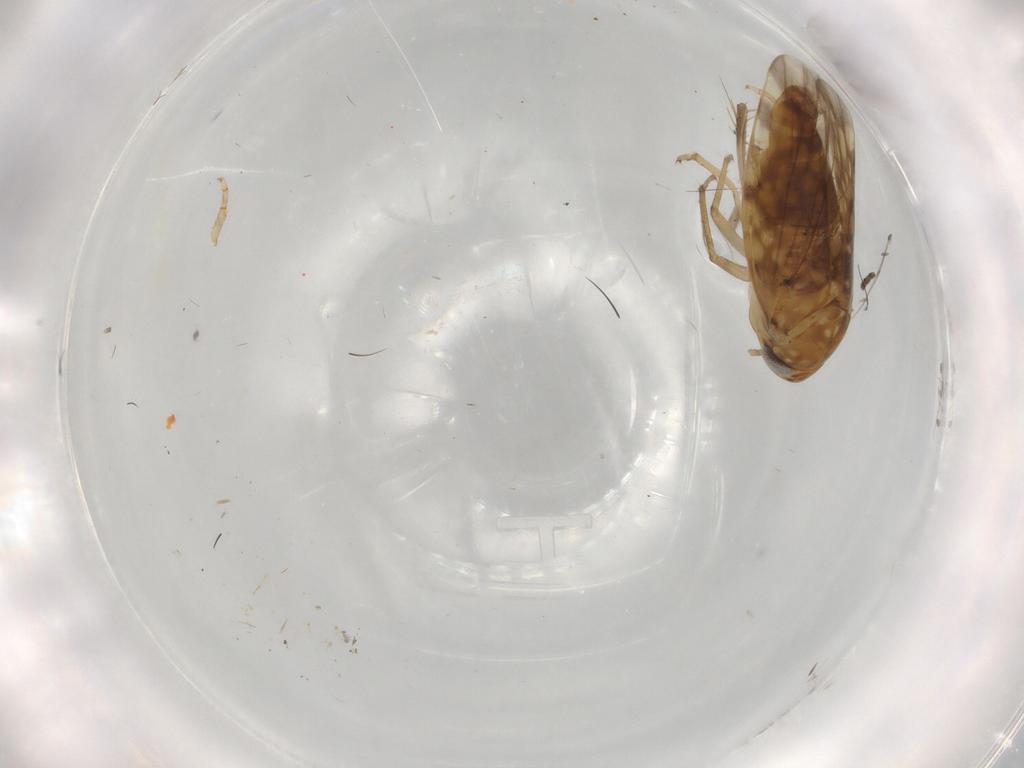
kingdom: Animalia
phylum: Arthropoda
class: Insecta
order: Hemiptera
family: Cicadellidae
